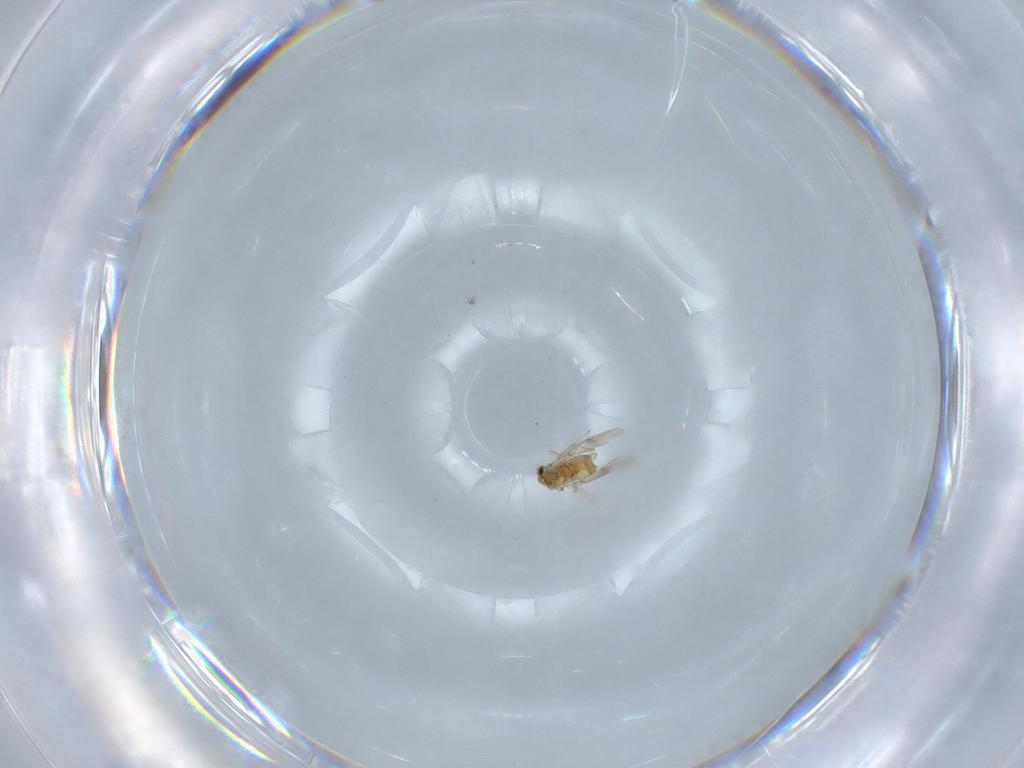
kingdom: Animalia
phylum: Arthropoda
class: Insecta
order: Hymenoptera
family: Aphelinidae
